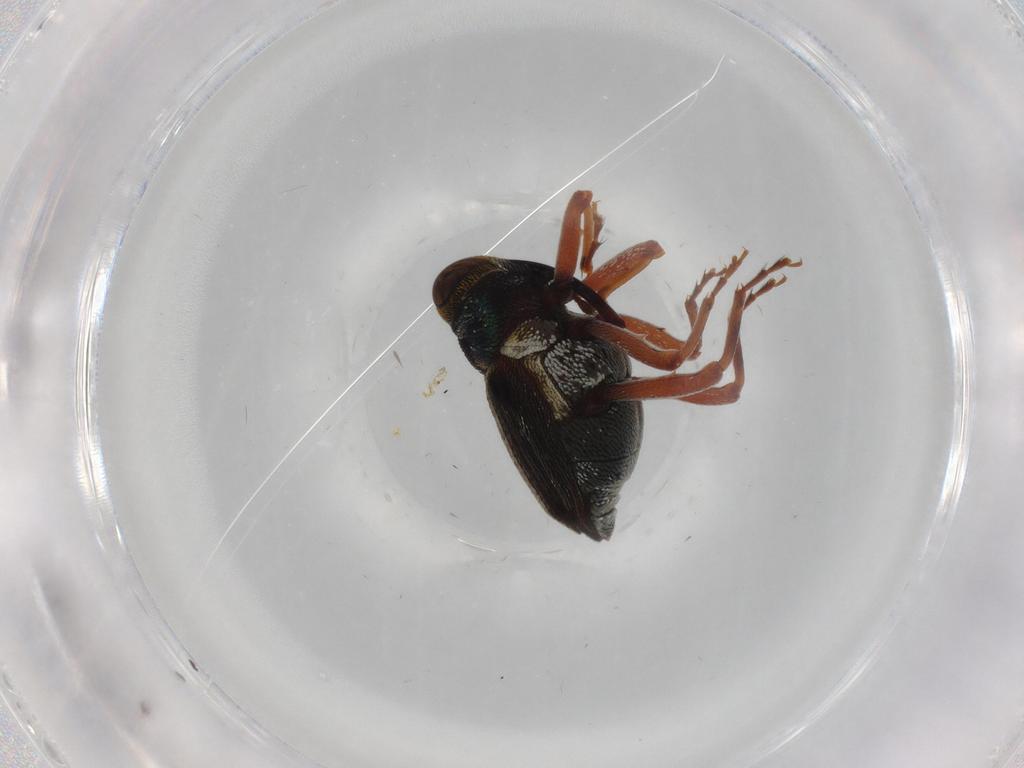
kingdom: Animalia
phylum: Arthropoda
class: Insecta
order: Coleoptera
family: Curculionidae
